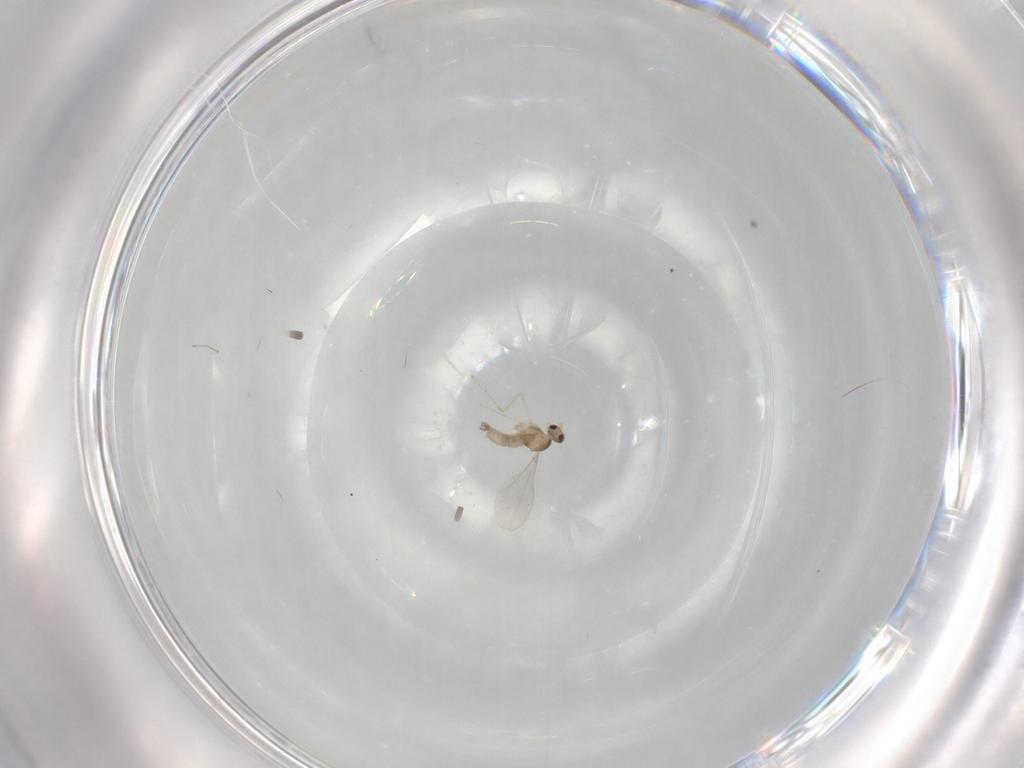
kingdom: Animalia
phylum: Arthropoda
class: Insecta
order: Diptera
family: Cecidomyiidae
